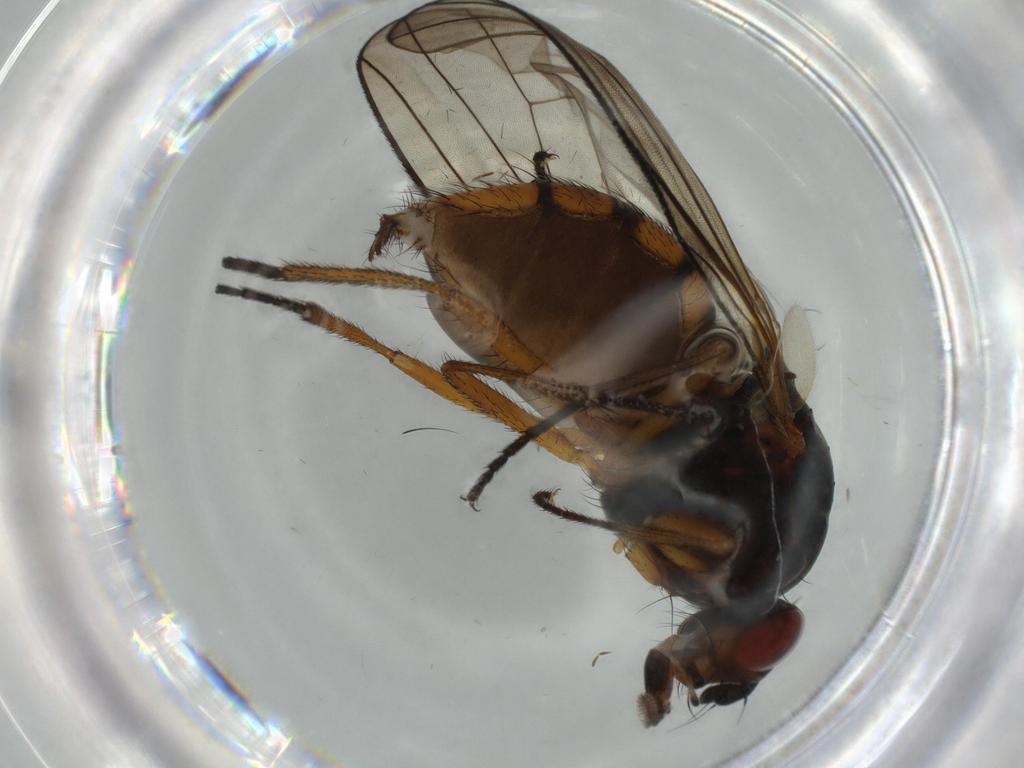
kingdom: Animalia
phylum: Arthropoda
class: Insecta
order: Diptera
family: Anthomyiidae
